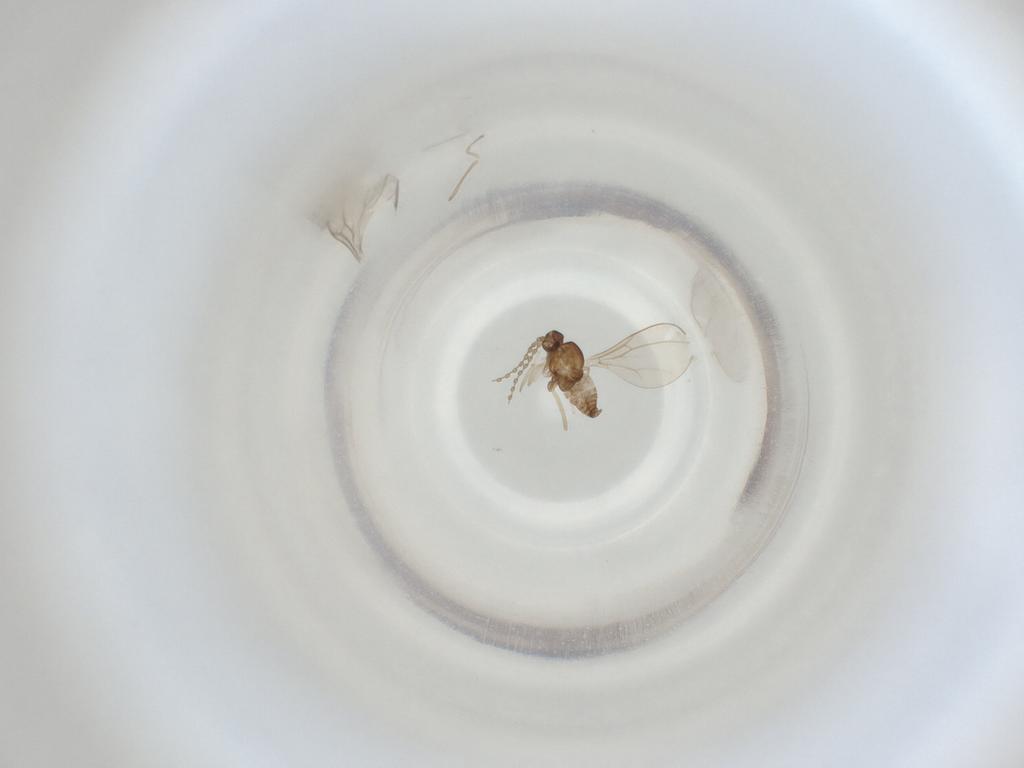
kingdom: Animalia
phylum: Arthropoda
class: Insecta
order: Diptera
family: Cecidomyiidae
